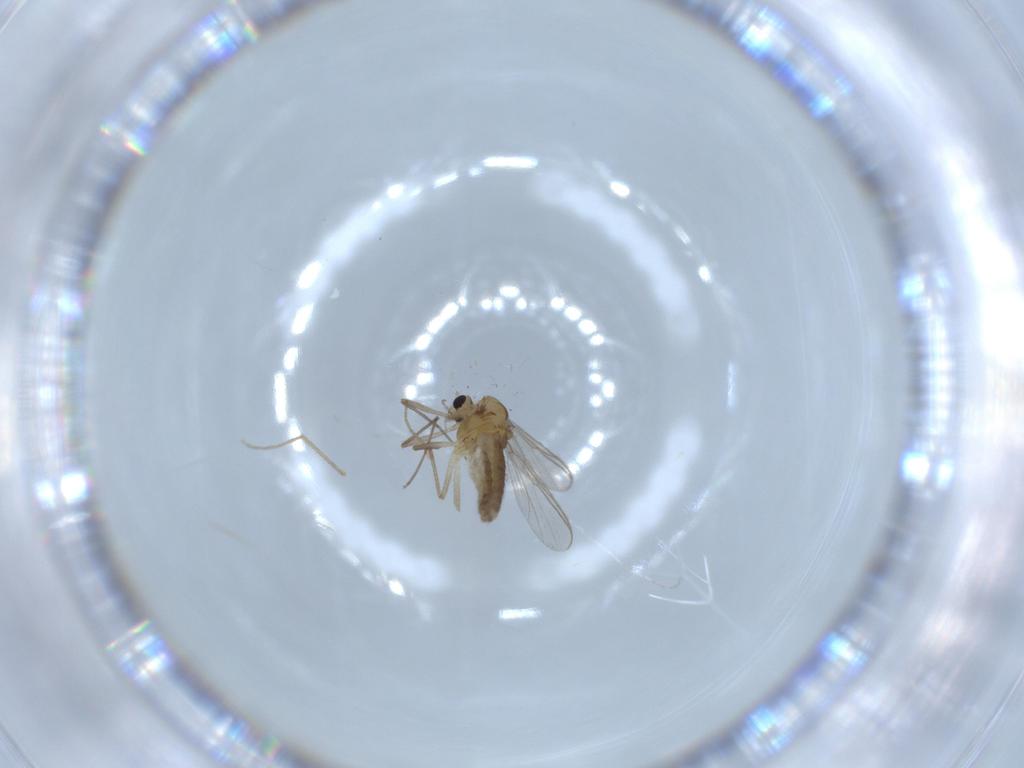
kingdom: Animalia
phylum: Arthropoda
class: Insecta
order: Diptera
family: Chironomidae
